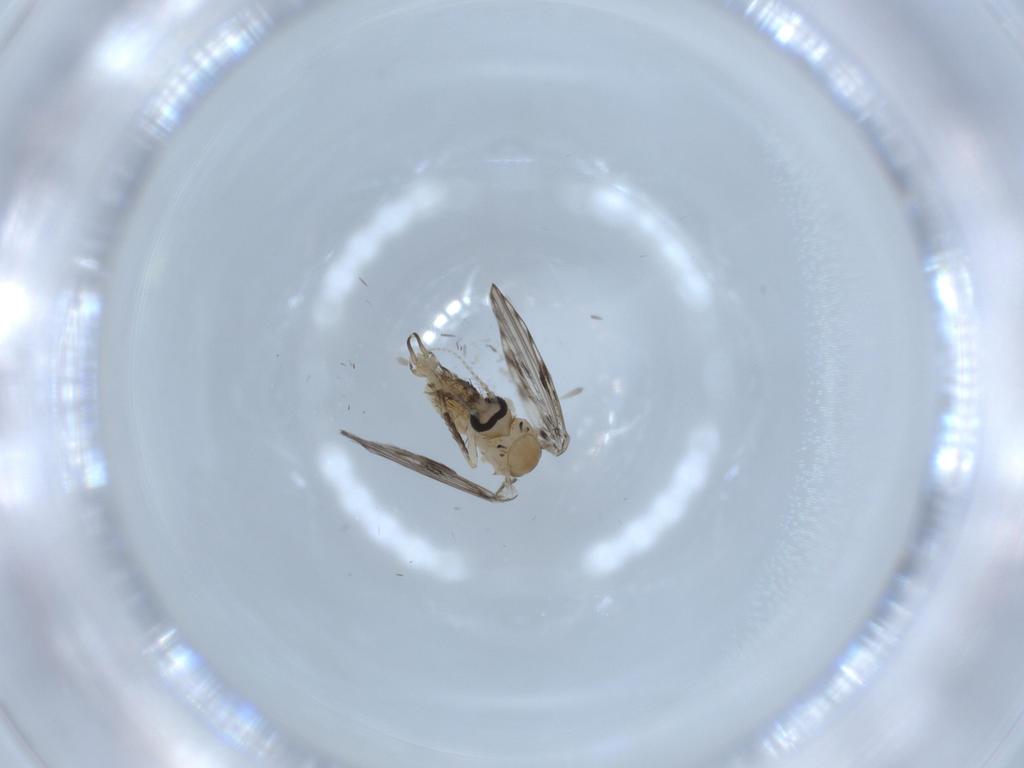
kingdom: Animalia
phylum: Arthropoda
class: Insecta
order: Diptera
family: Psychodidae
